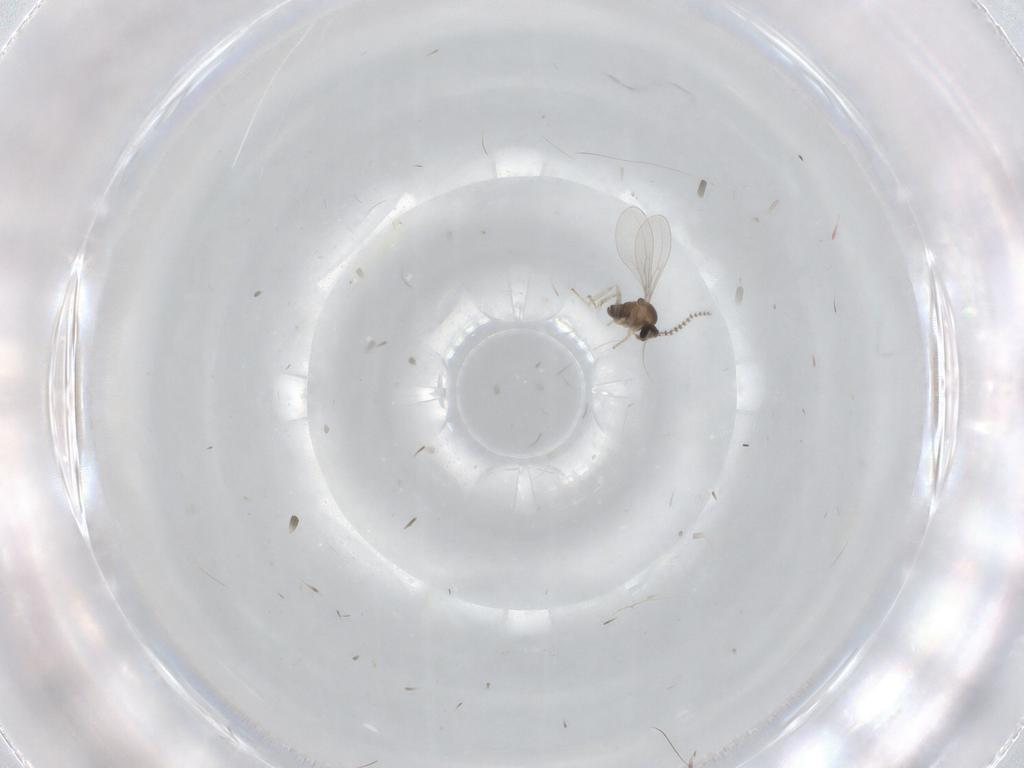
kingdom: Animalia
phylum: Arthropoda
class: Insecta
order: Diptera
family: Cecidomyiidae
